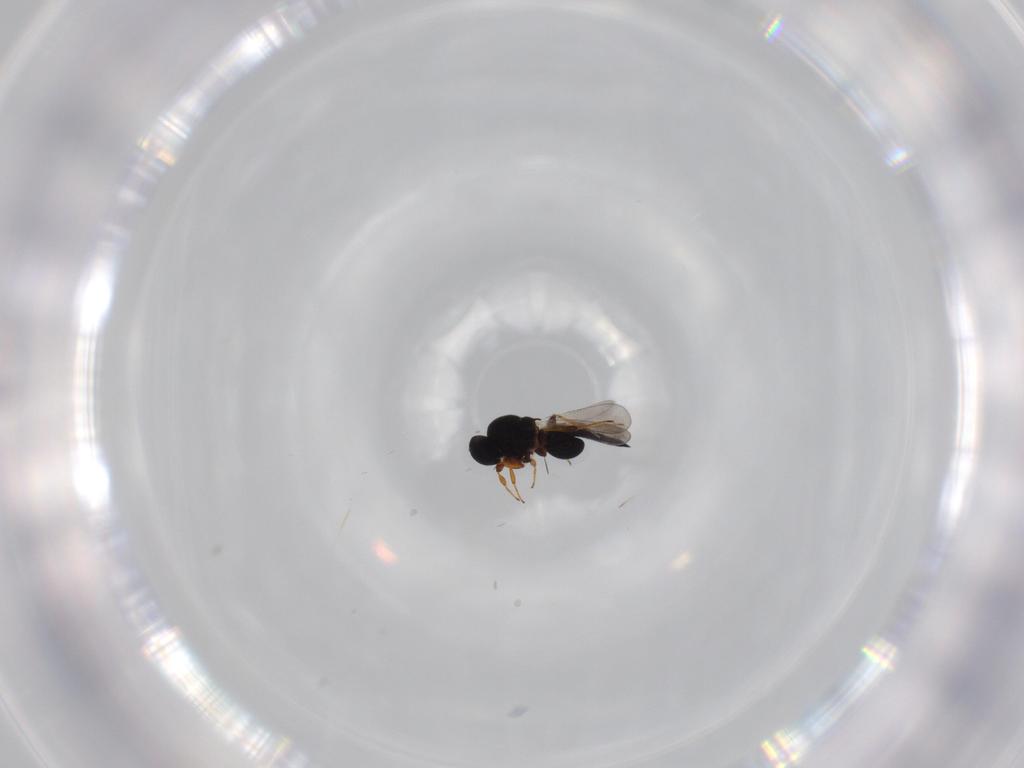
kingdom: Animalia
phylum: Arthropoda
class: Insecta
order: Hymenoptera
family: Platygastridae
